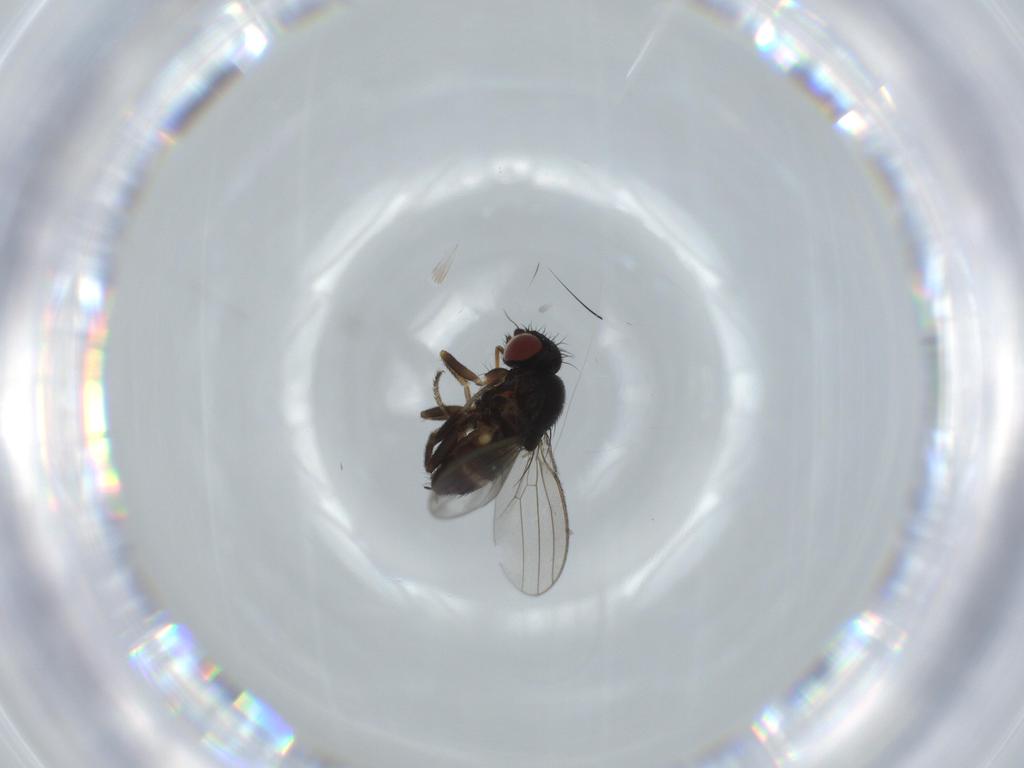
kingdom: Animalia
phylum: Arthropoda
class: Insecta
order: Diptera
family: Milichiidae
